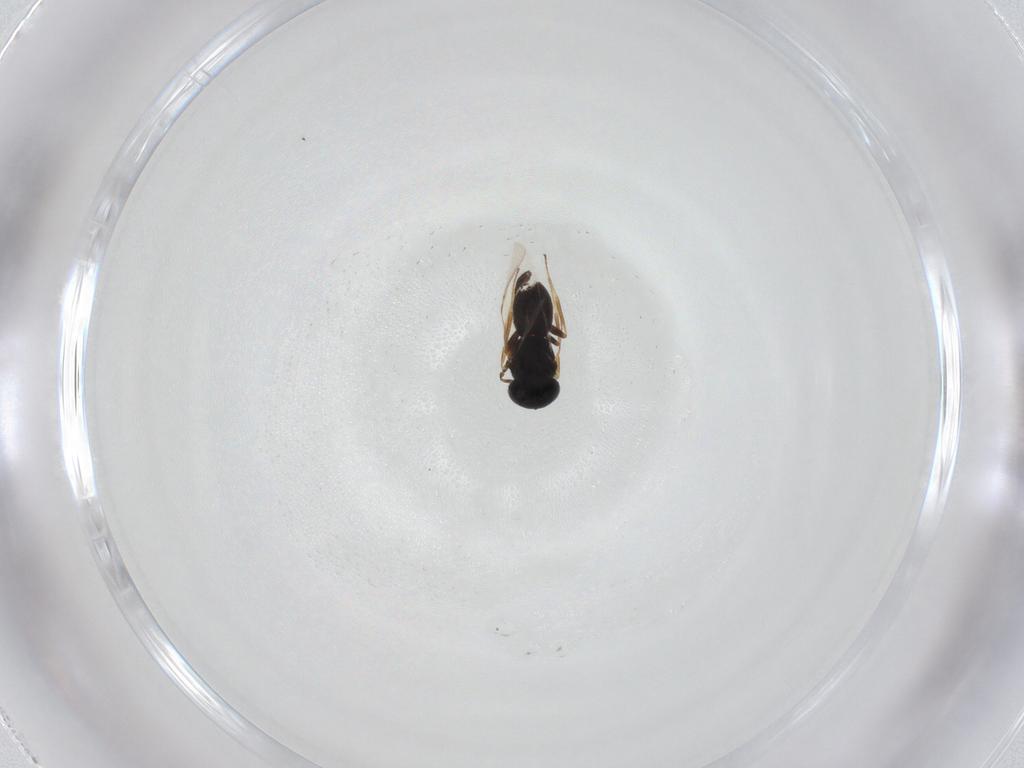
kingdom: Animalia
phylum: Arthropoda
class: Insecta
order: Hymenoptera
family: Scelionidae
